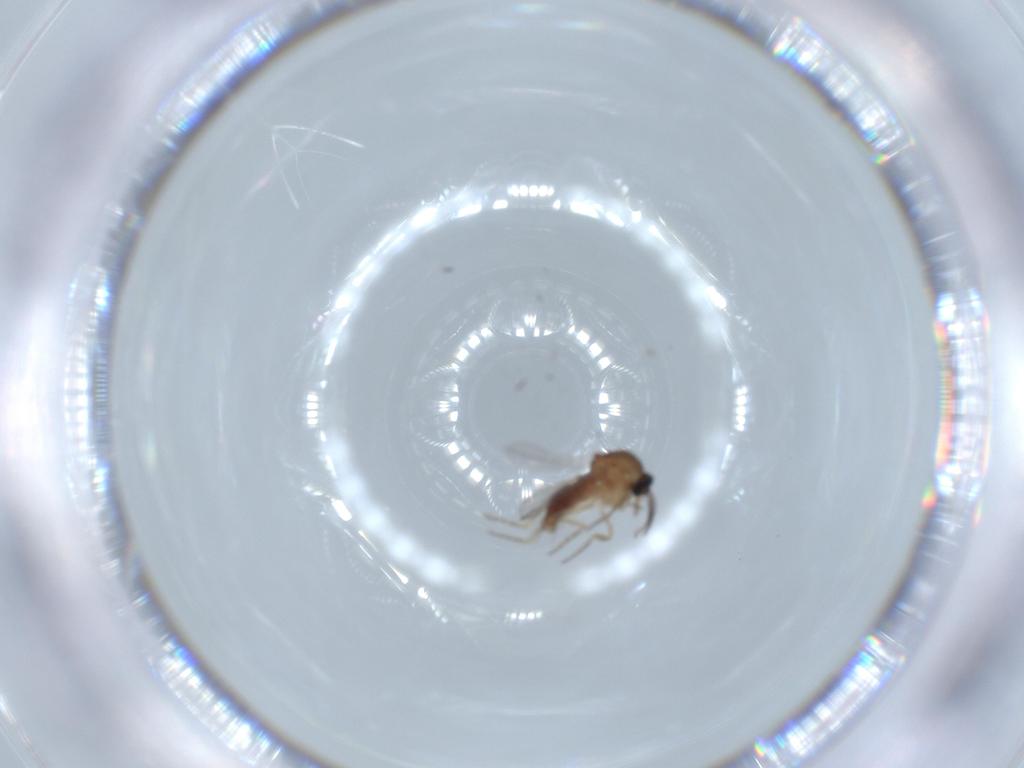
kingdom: Animalia
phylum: Arthropoda
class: Insecta
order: Diptera
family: Ceratopogonidae
